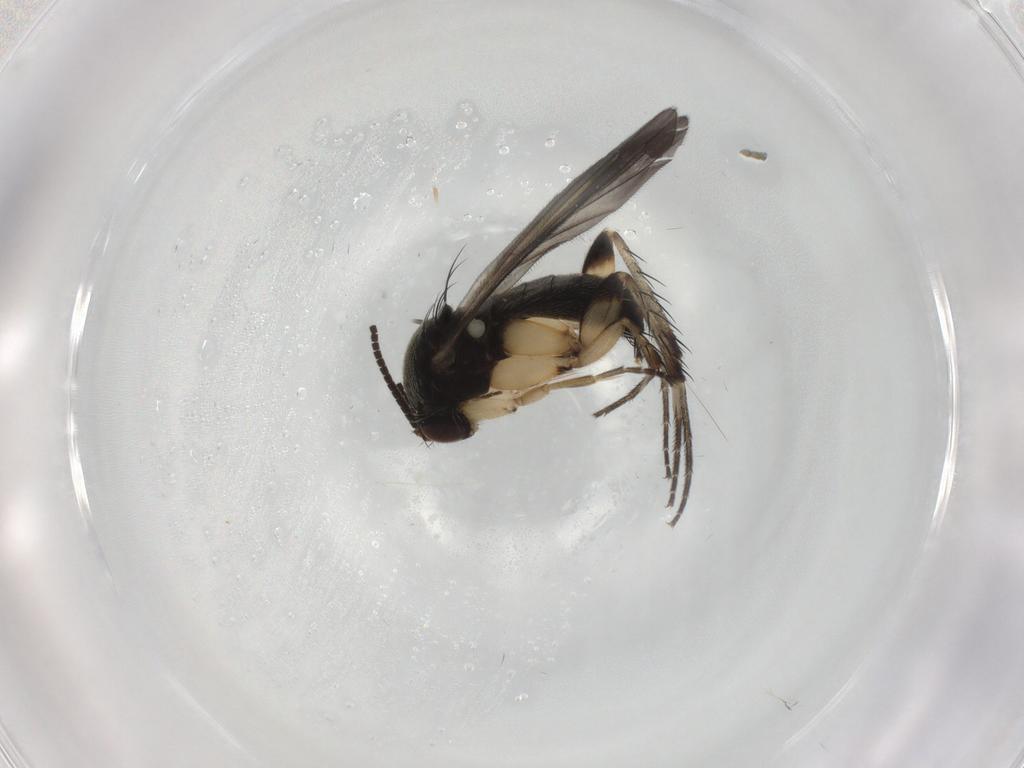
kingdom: Animalia
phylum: Arthropoda
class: Insecta
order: Diptera
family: Mycetophilidae
